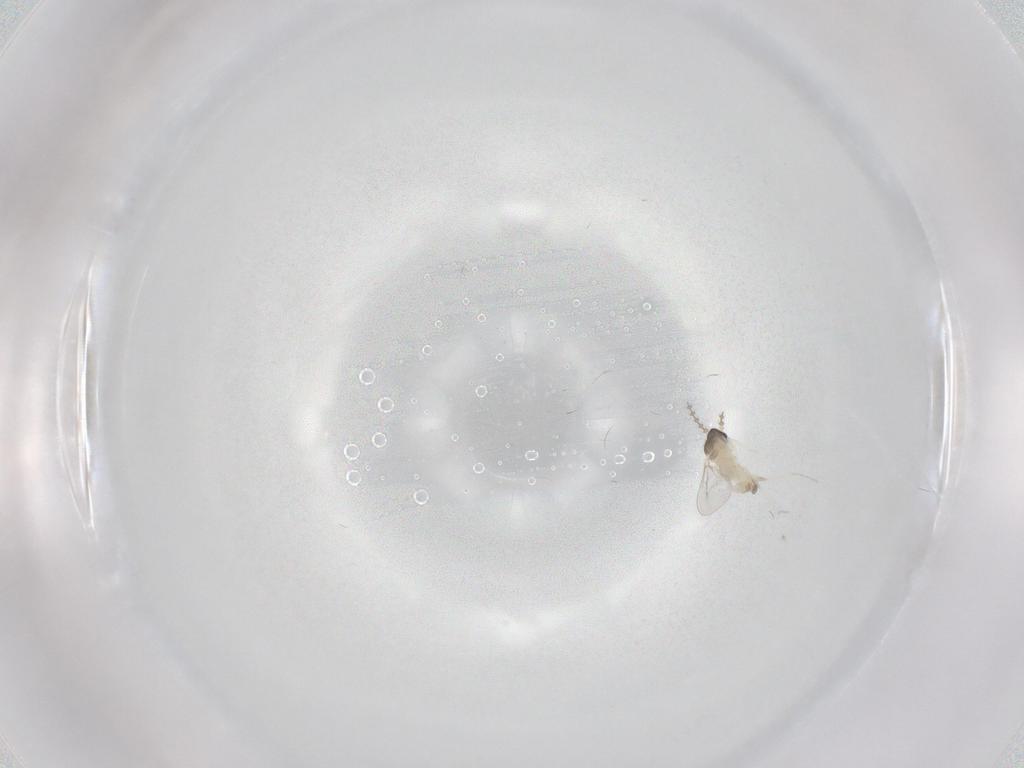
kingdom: Animalia
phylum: Arthropoda
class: Insecta
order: Diptera
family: Cecidomyiidae
